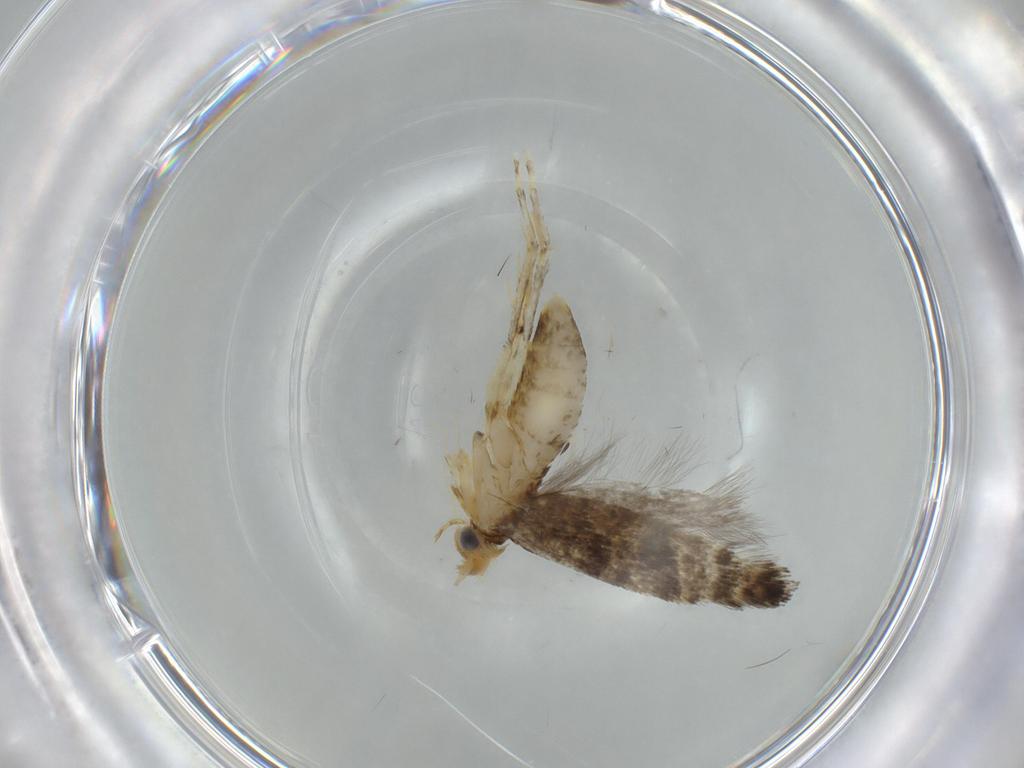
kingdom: Animalia
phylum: Arthropoda
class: Insecta
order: Lepidoptera
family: Argyresthiidae
